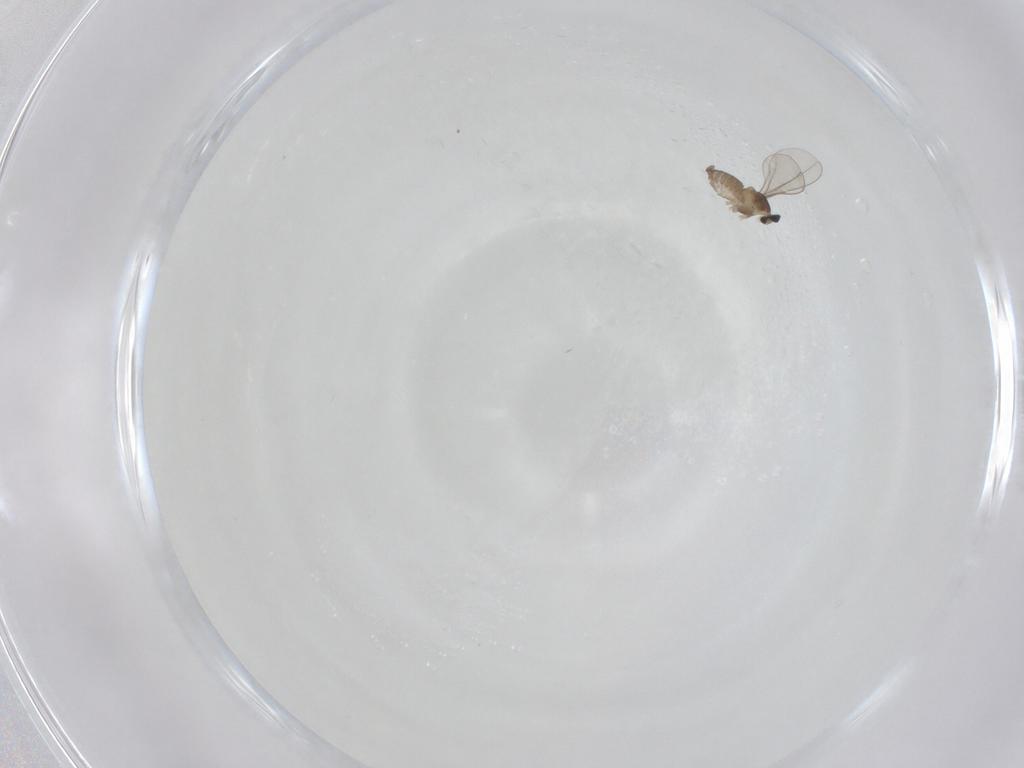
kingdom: Animalia
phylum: Arthropoda
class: Insecta
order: Diptera
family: Cecidomyiidae
